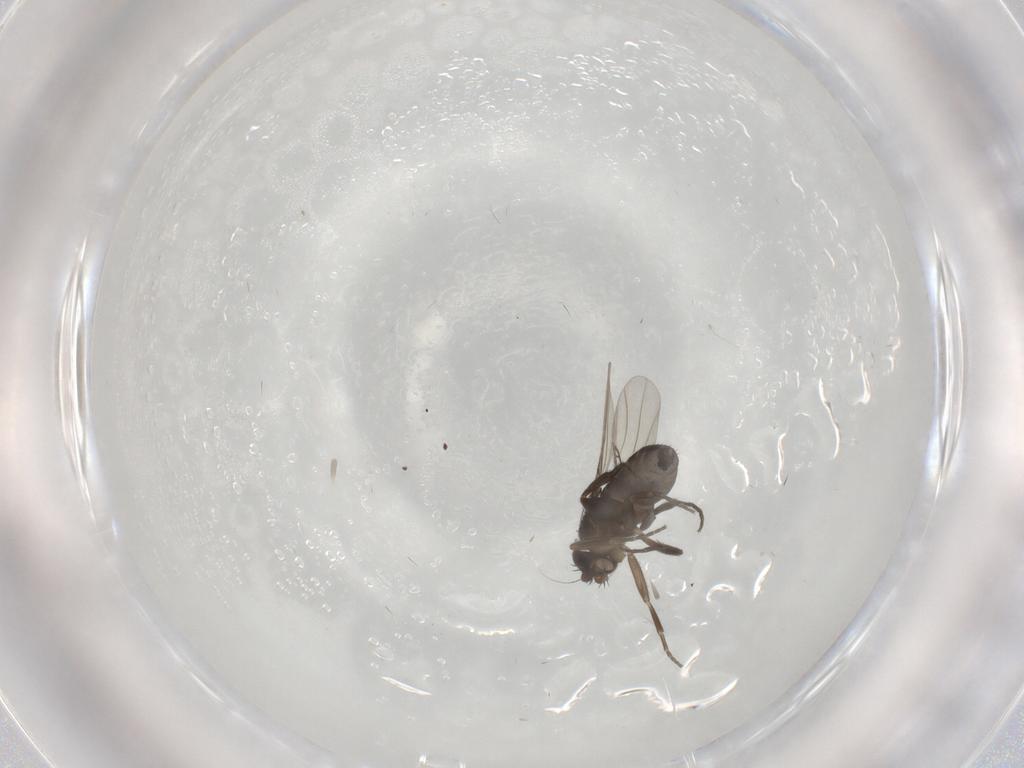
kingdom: Animalia
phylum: Arthropoda
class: Insecta
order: Diptera
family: Phoridae
